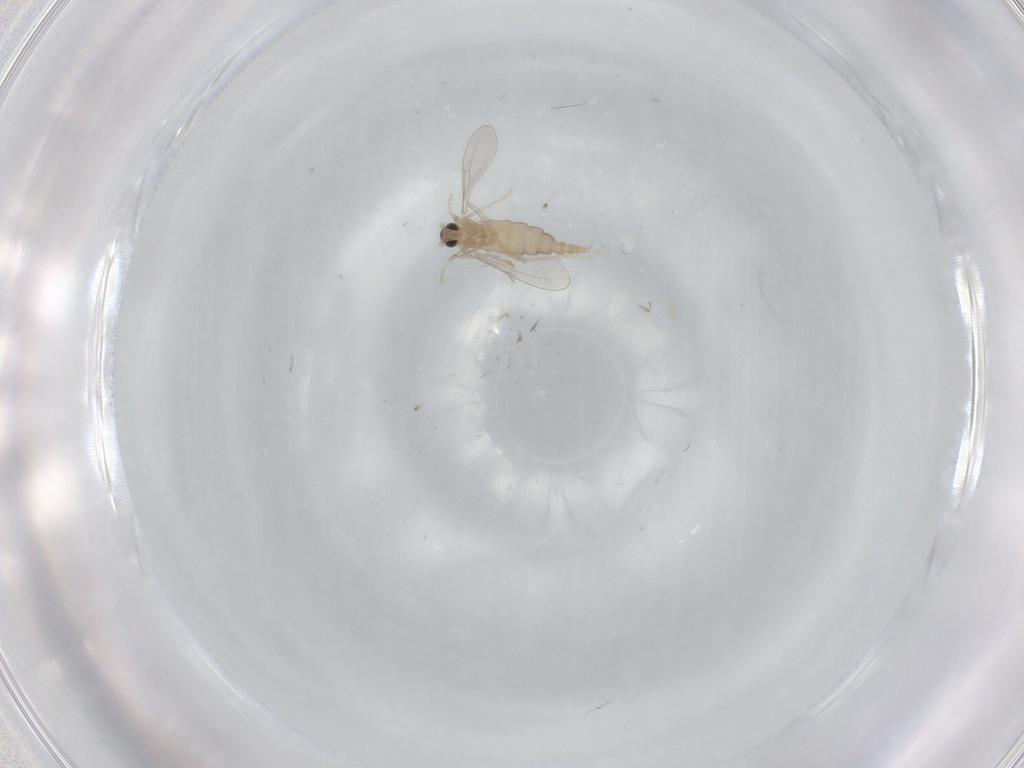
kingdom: Animalia
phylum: Arthropoda
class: Insecta
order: Diptera
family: Cecidomyiidae
